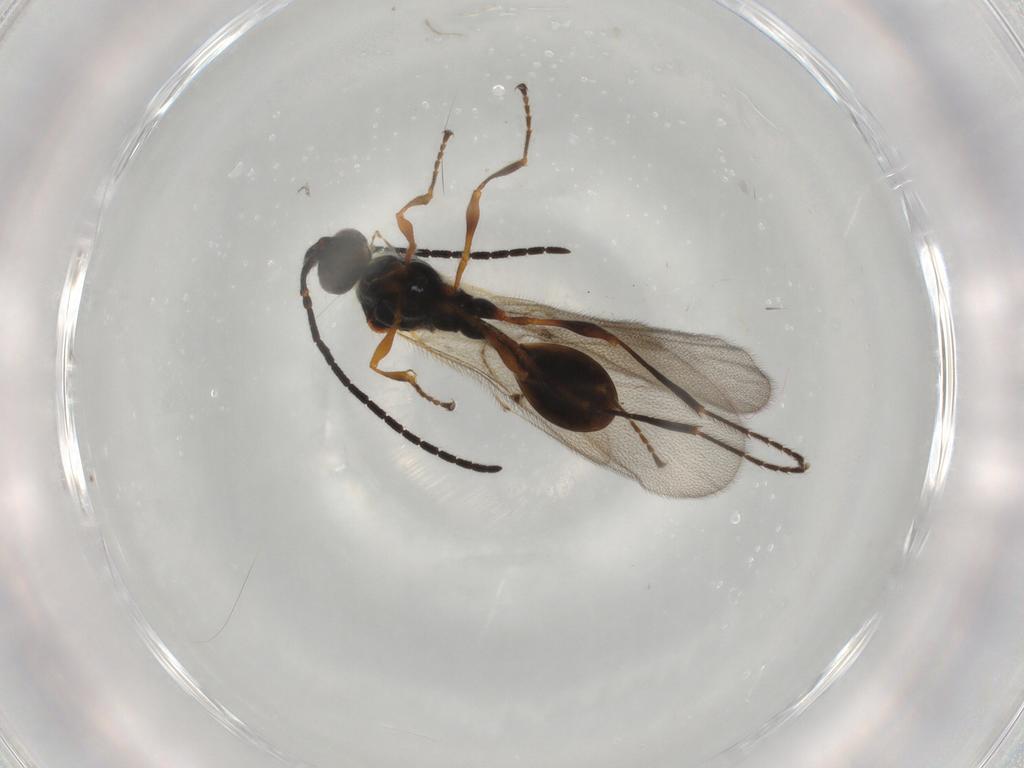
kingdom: Animalia
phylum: Arthropoda
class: Insecta
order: Hymenoptera
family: Diapriidae
